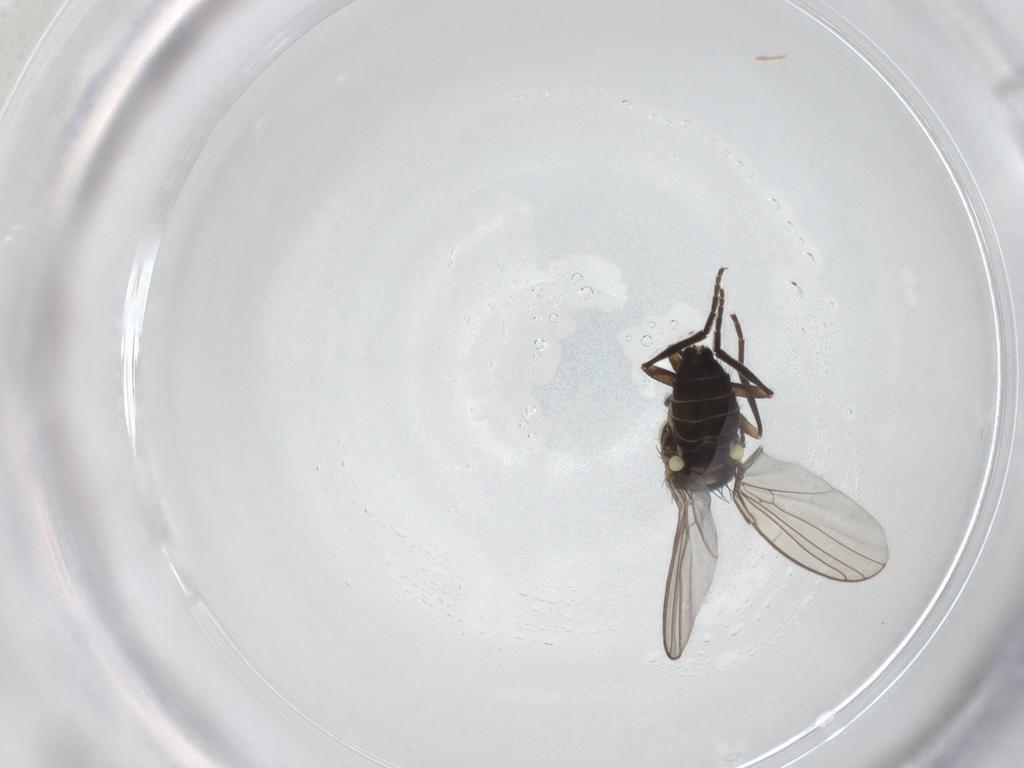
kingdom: Animalia
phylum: Arthropoda
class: Insecta
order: Diptera
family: Agromyzidae
